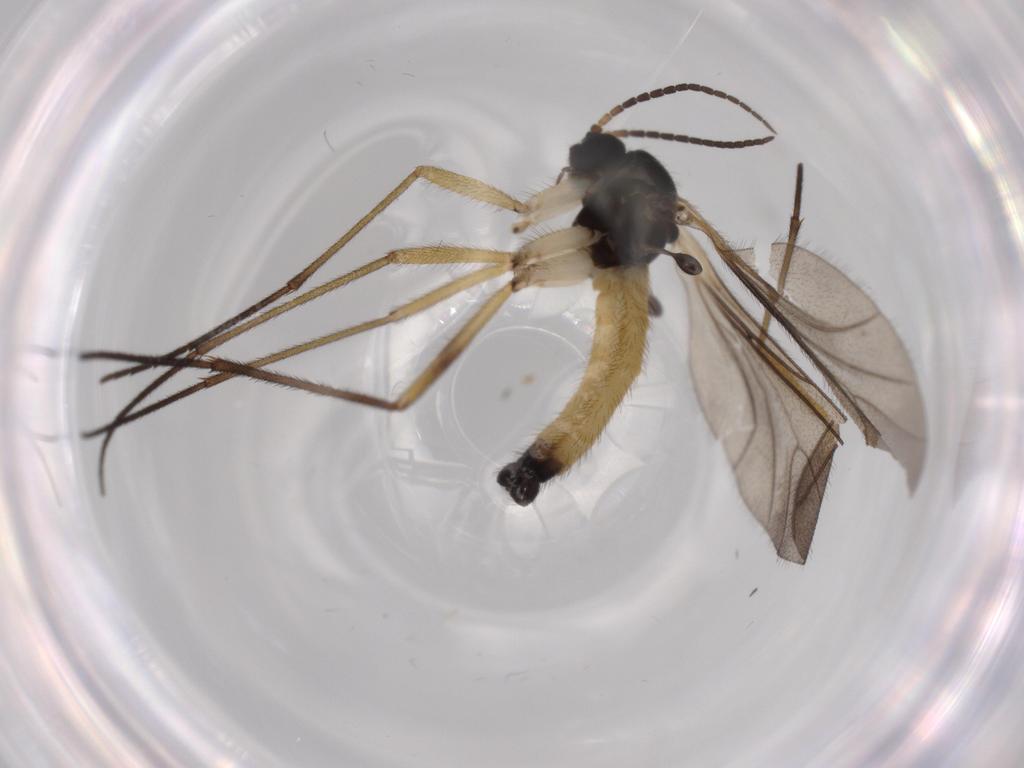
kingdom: Animalia
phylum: Arthropoda
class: Insecta
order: Diptera
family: Sciaridae
